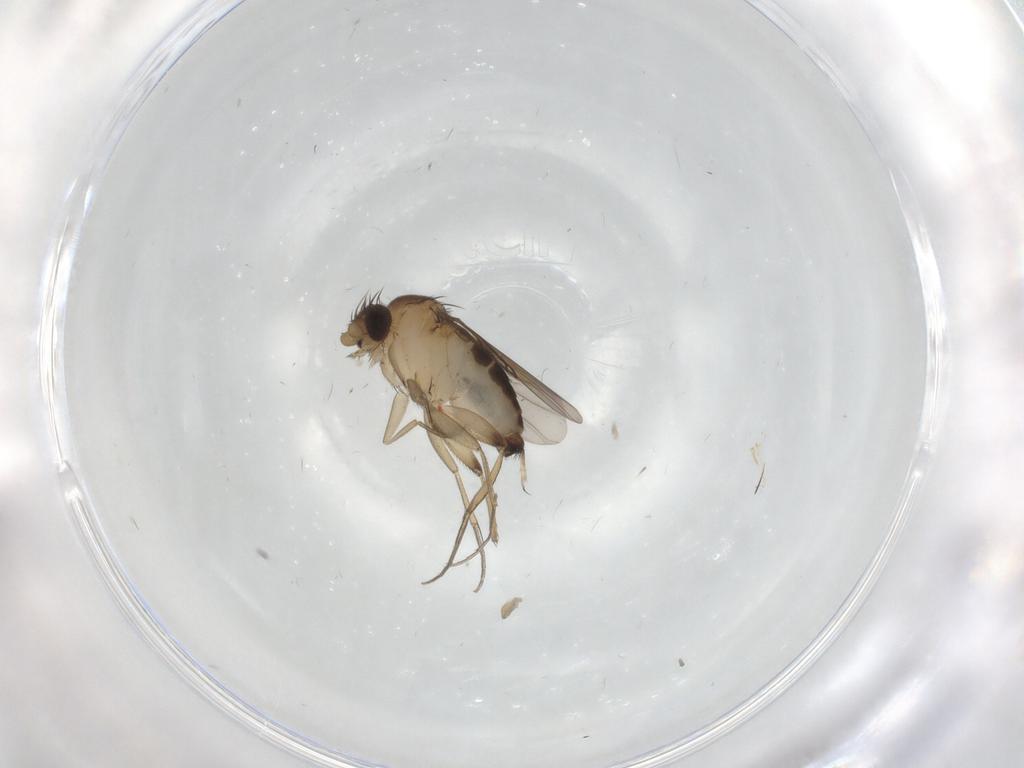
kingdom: Animalia
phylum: Arthropoda
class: Insecta
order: Diptera
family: Phoridae
